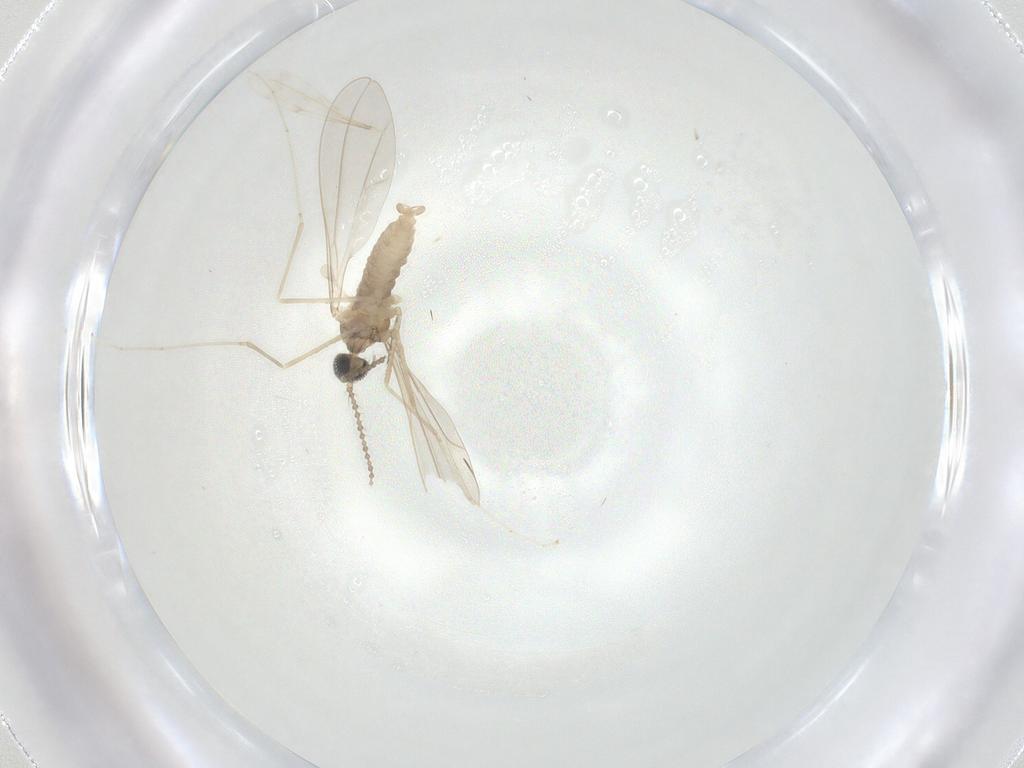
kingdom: Animalia
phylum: Arthropoda
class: Insecta
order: Diptera
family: Cecidomyiidae
